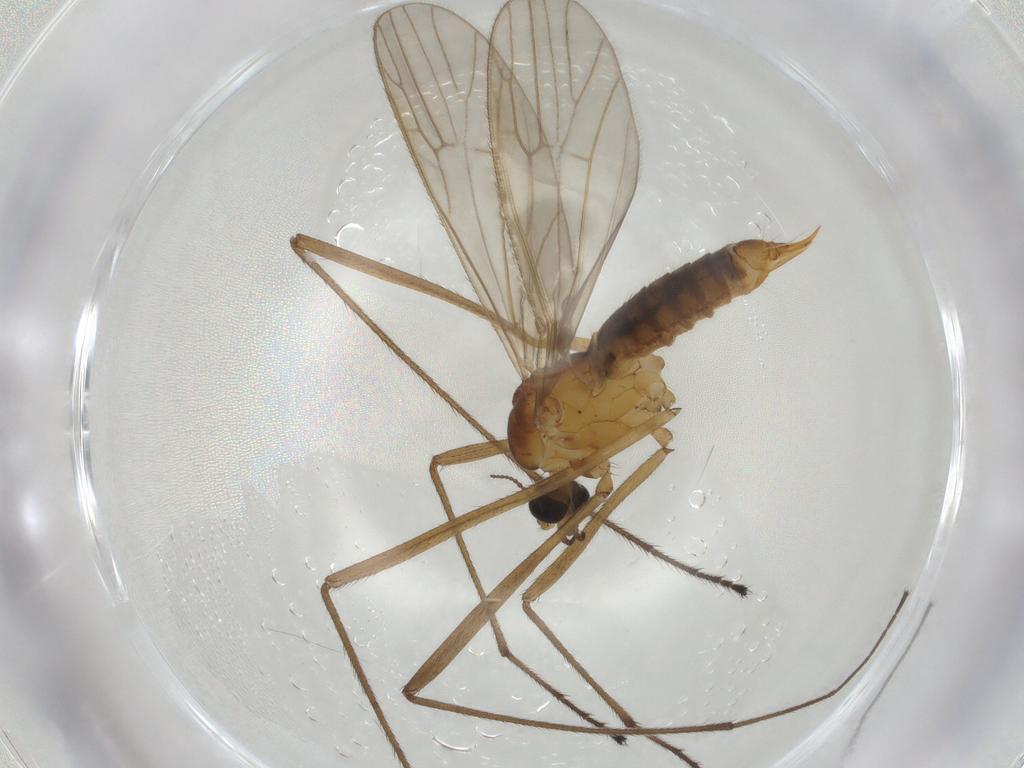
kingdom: Animalia
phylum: Arthropoda
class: Insecta
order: Diptera
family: Limoniidae
